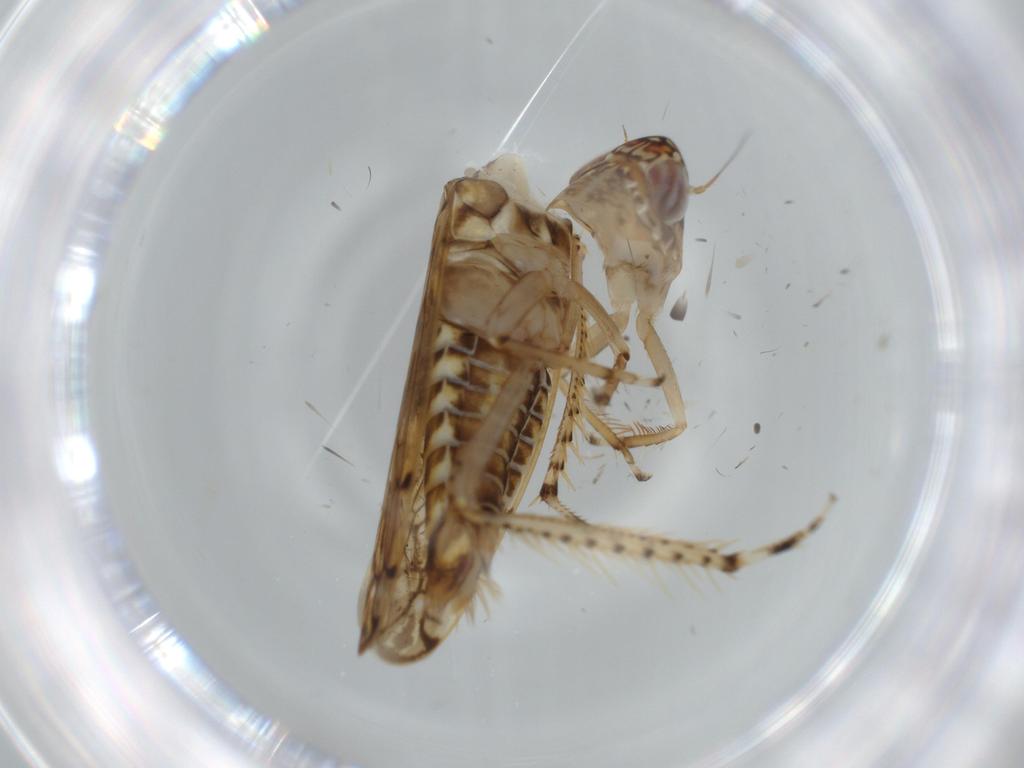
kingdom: Animalia
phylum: Arthropoda
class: Insecta
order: Hemiptera
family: Cicadellidae
